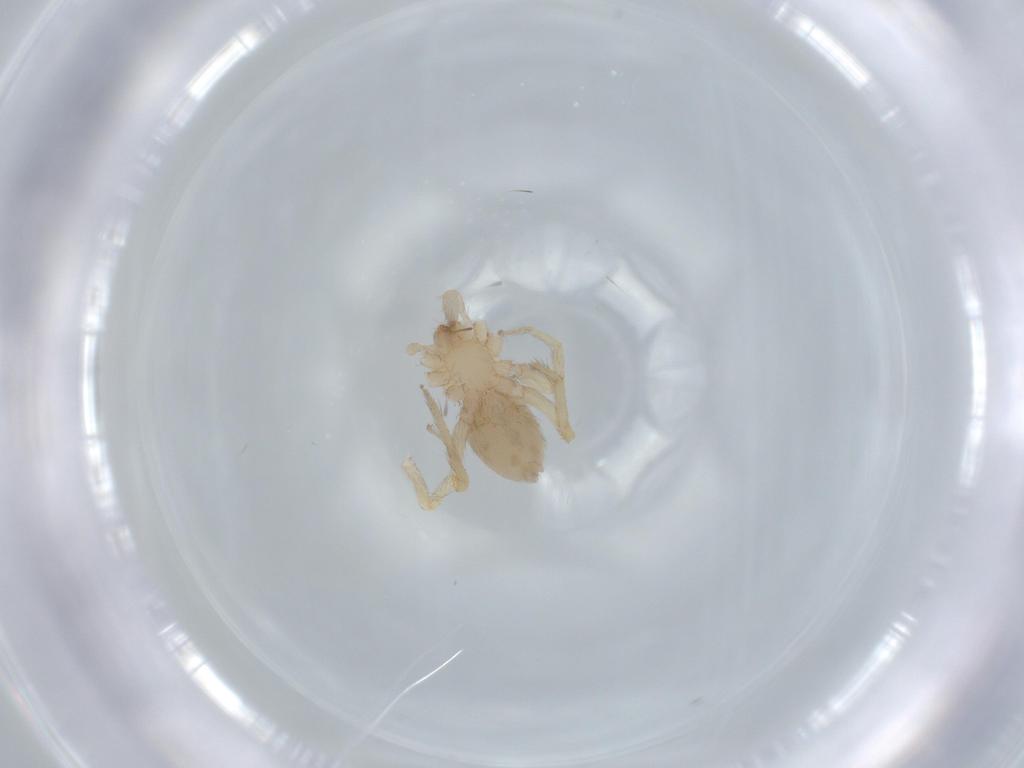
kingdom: Animalia
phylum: Arthropoda
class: Arachnida
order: Araneae
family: Oonopidae
